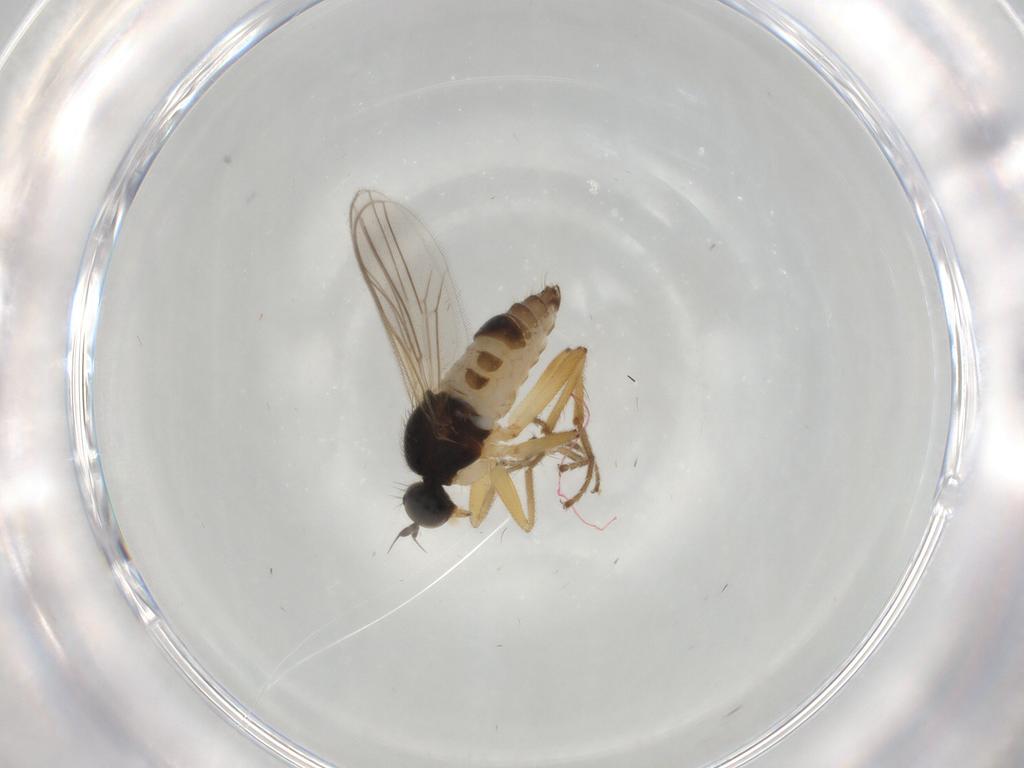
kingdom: Animalia
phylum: Arthropoda
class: Insecta
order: Diptera
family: Hybotidae
